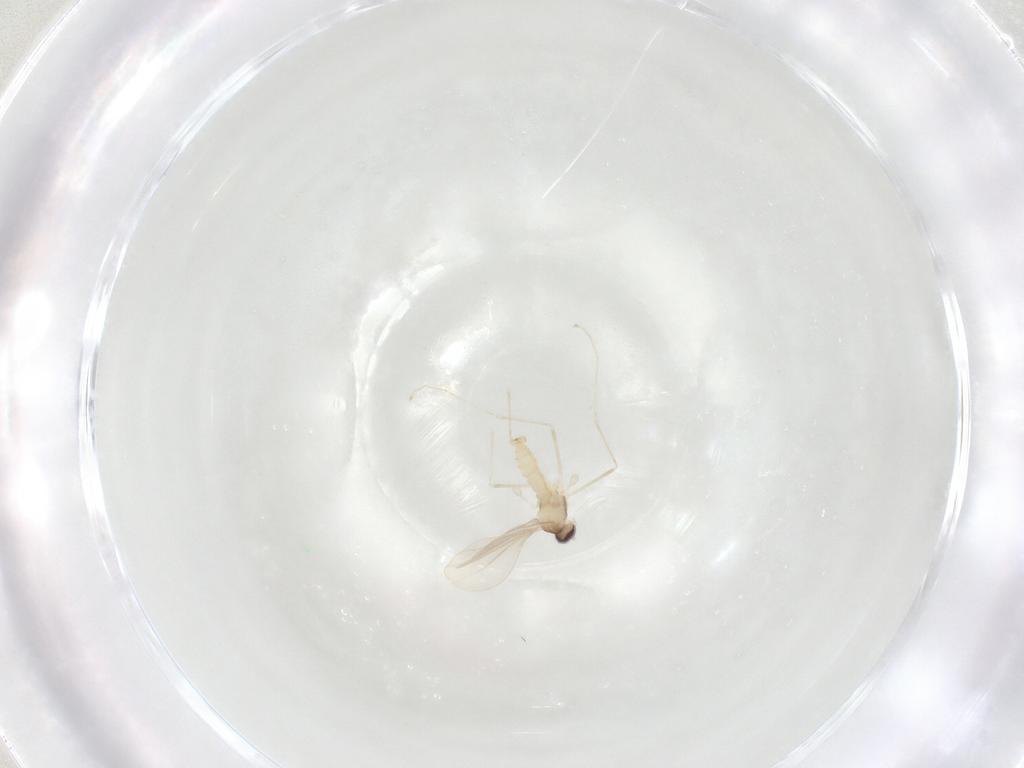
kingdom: Animalia
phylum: Arthropoda
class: Insecta
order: Diptera
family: Cecidomyiidae
